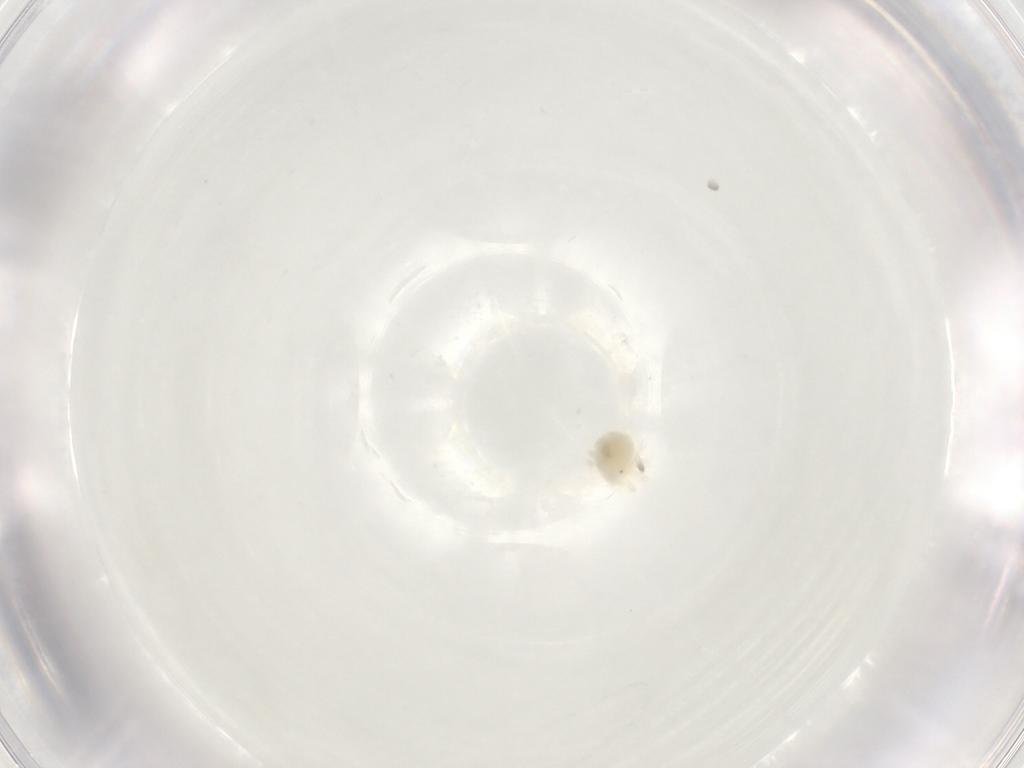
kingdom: Animalia
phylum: Arthropoda
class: Arachnida
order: Trombidiformes
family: Anystidae
